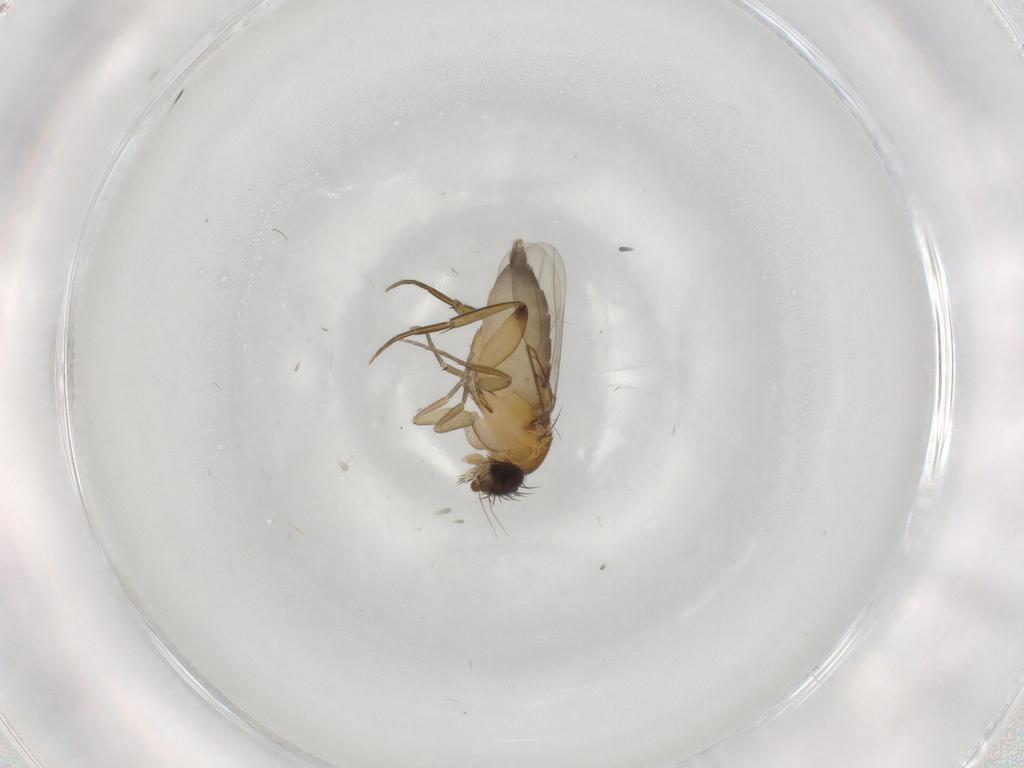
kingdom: Animalia
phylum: Arthropoda
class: Insecta
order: Diptera
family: Phoridae
